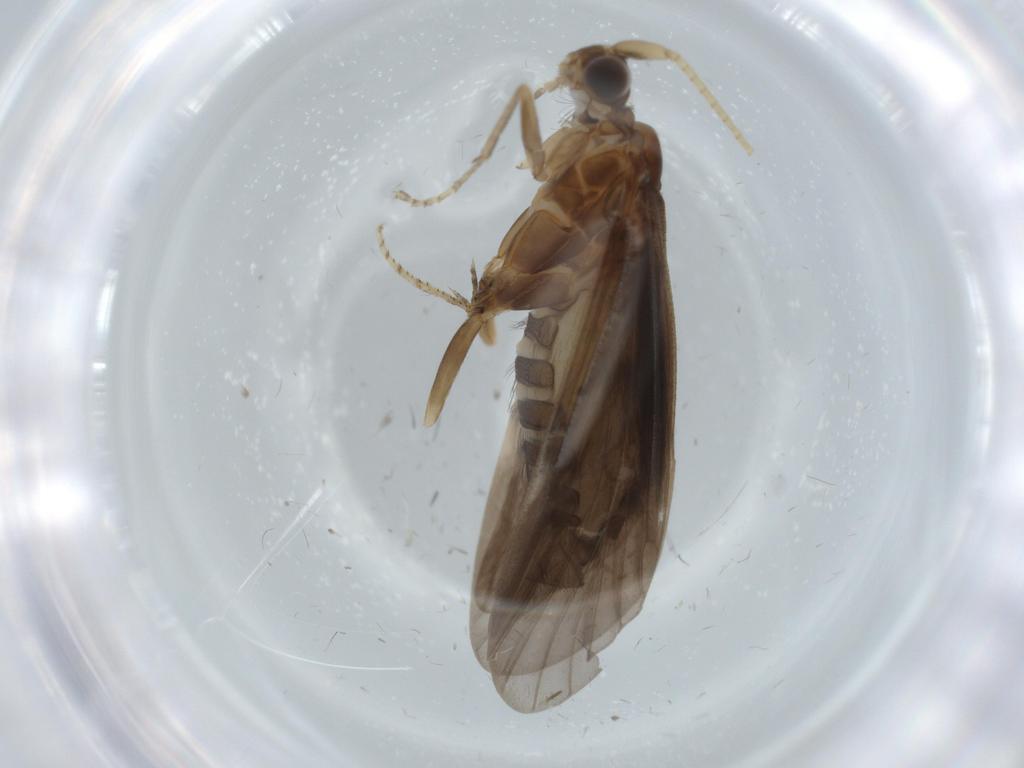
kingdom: Animalia
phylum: Arthropoda
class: Insecta
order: Trichoptera
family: Helicopsychidae
